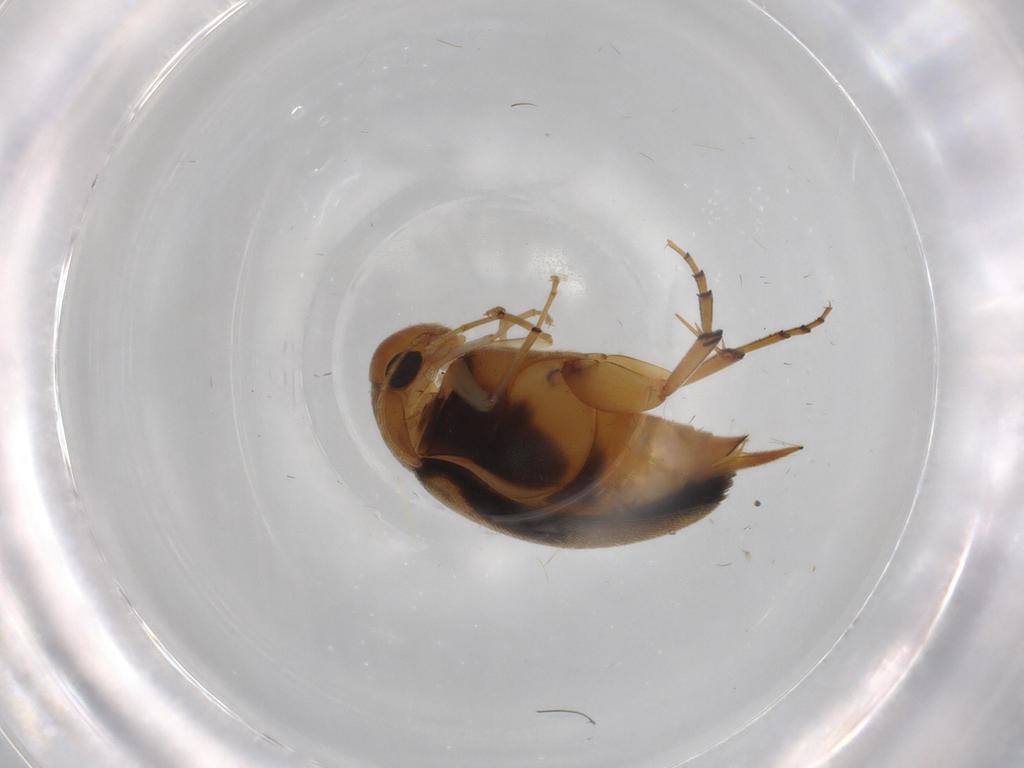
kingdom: Animalia
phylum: Arthropoda
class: Insecta
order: Coleoptera
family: Mordellidae
